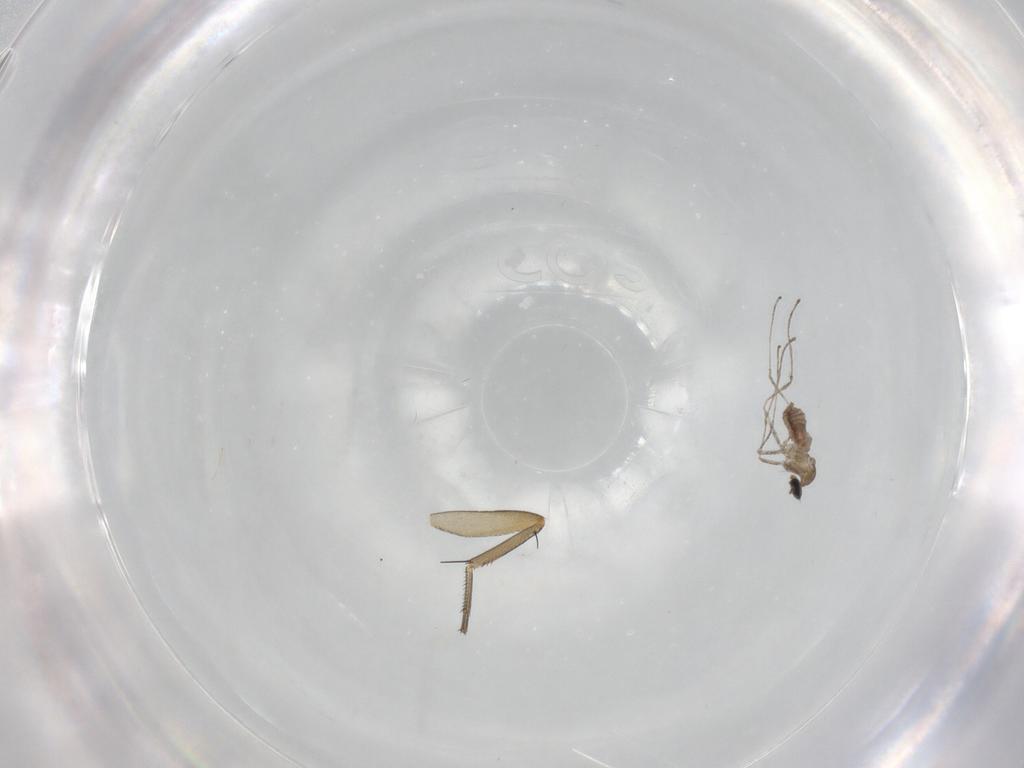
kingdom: Animalia
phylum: Arthropoda
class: Insecta
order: Diptera
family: Cecidomyiidae
